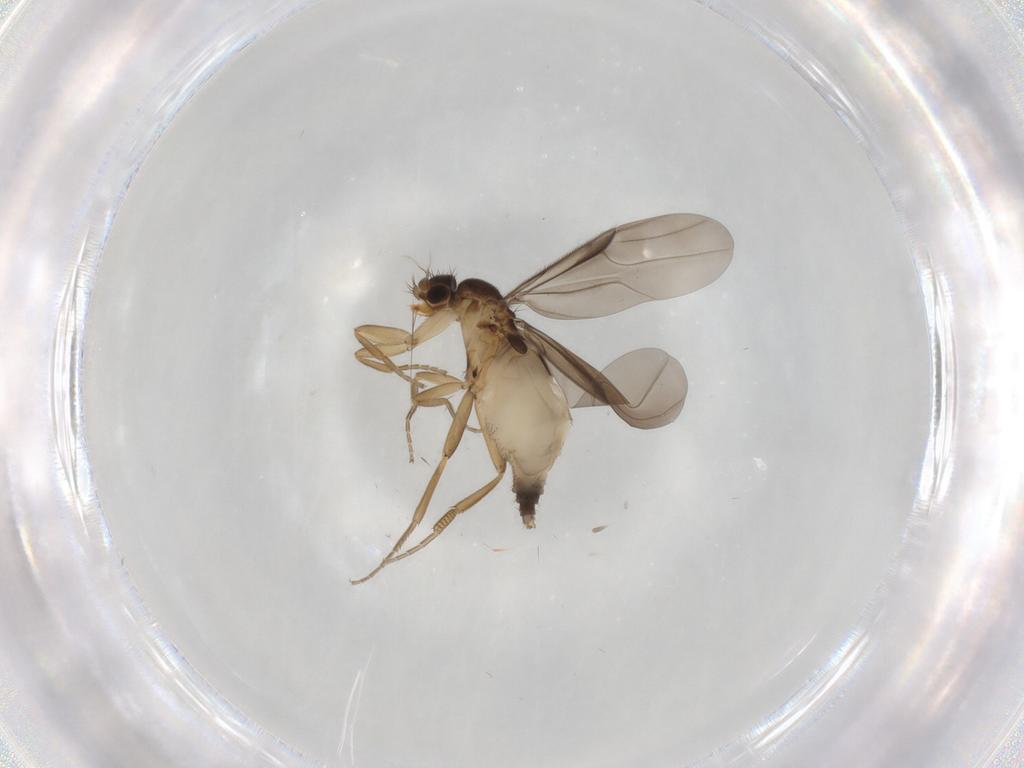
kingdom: Animalia
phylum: Arthropoda
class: Insecta
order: Diptera
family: Phoridae
